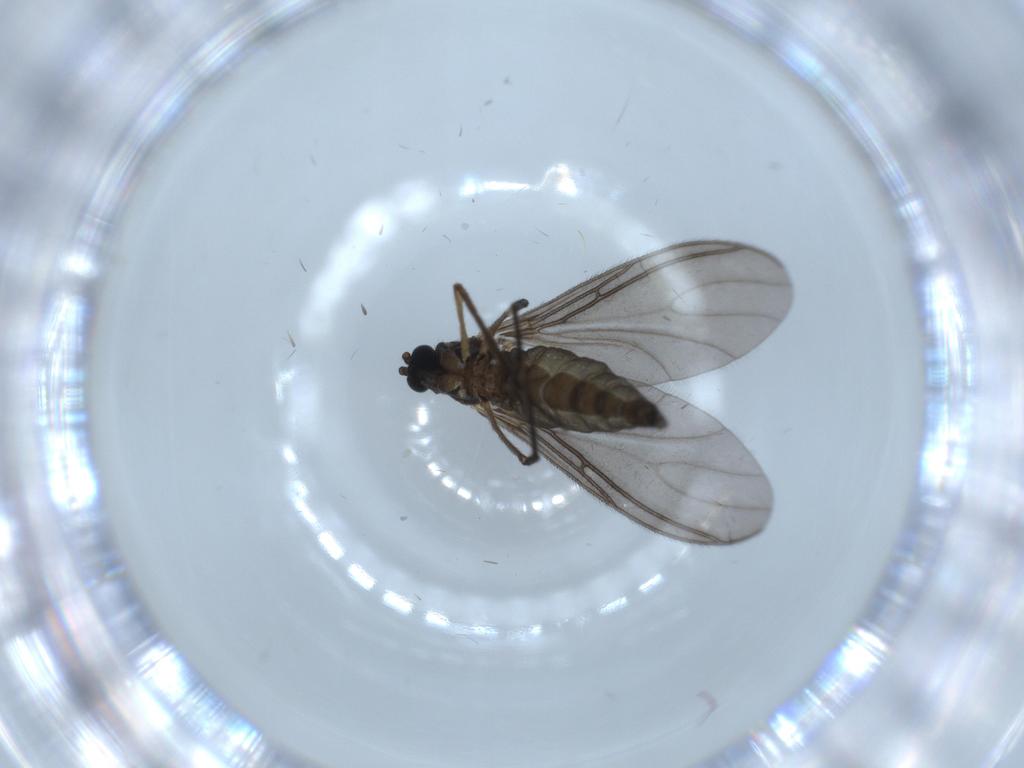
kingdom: Animalia
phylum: Arthropoda
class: Insecta
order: Diptera
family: Sciaridae
